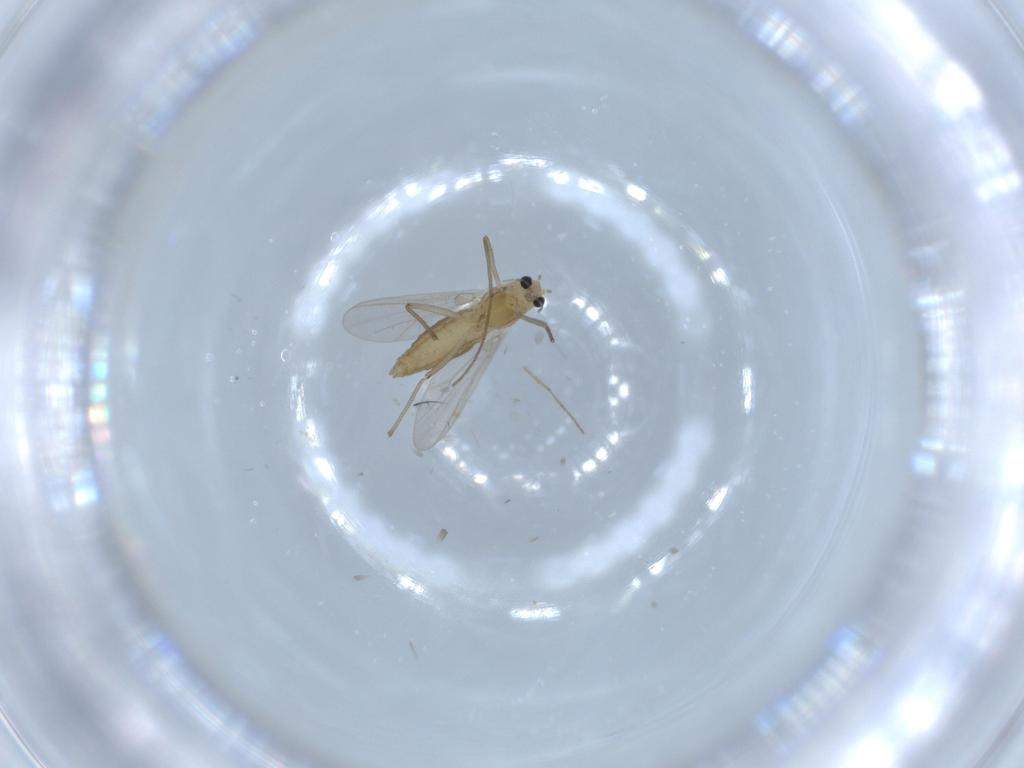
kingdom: Animalia
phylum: Arthropoda
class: Insecta
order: Diptera
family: Chironomidae
